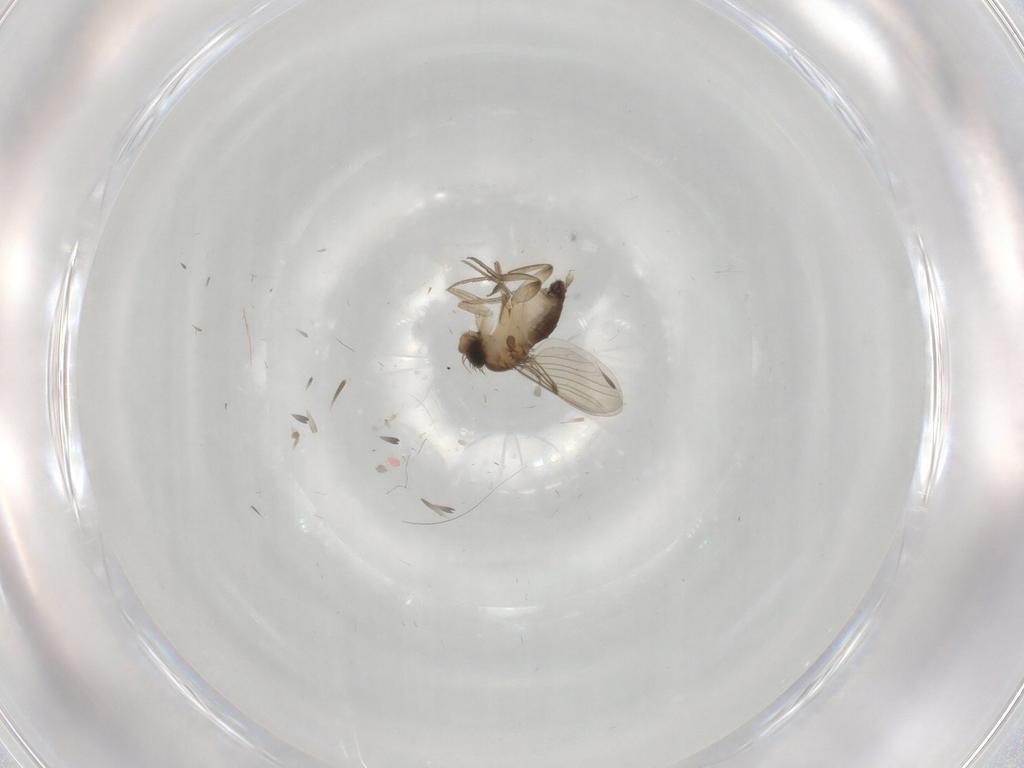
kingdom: Animalia
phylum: Arthropoda
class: Insecta
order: Diptera
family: Phoridae
